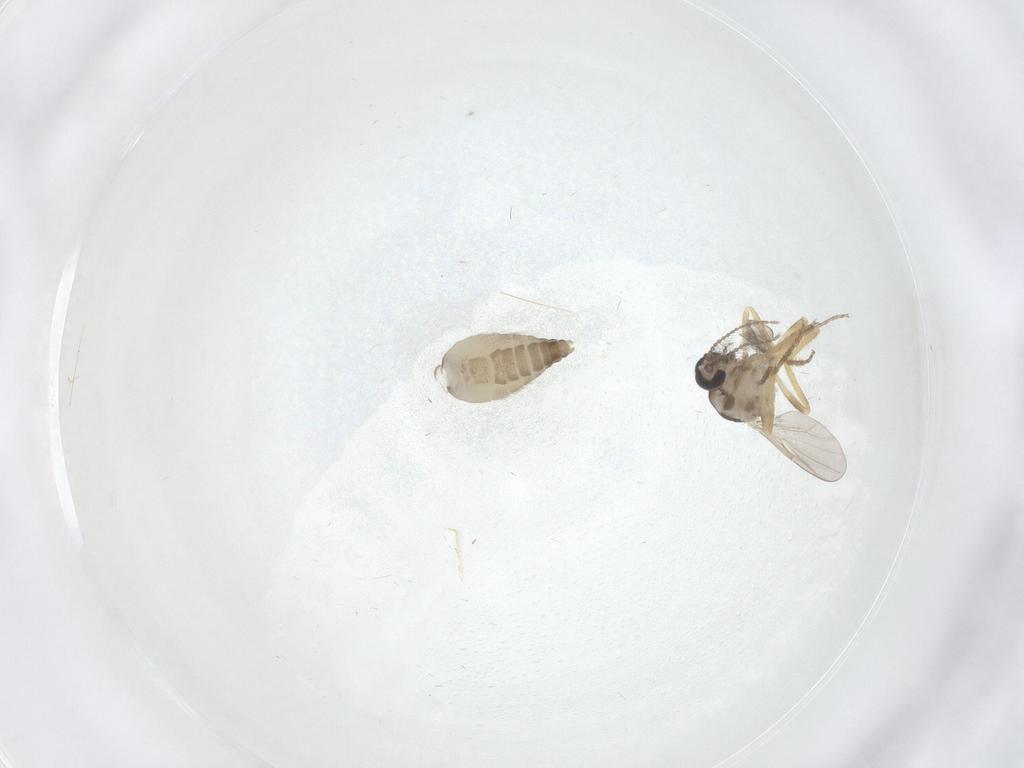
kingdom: Animalia
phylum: Arthropoda
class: Insecta
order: Diptera
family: Ceratopogonidae
